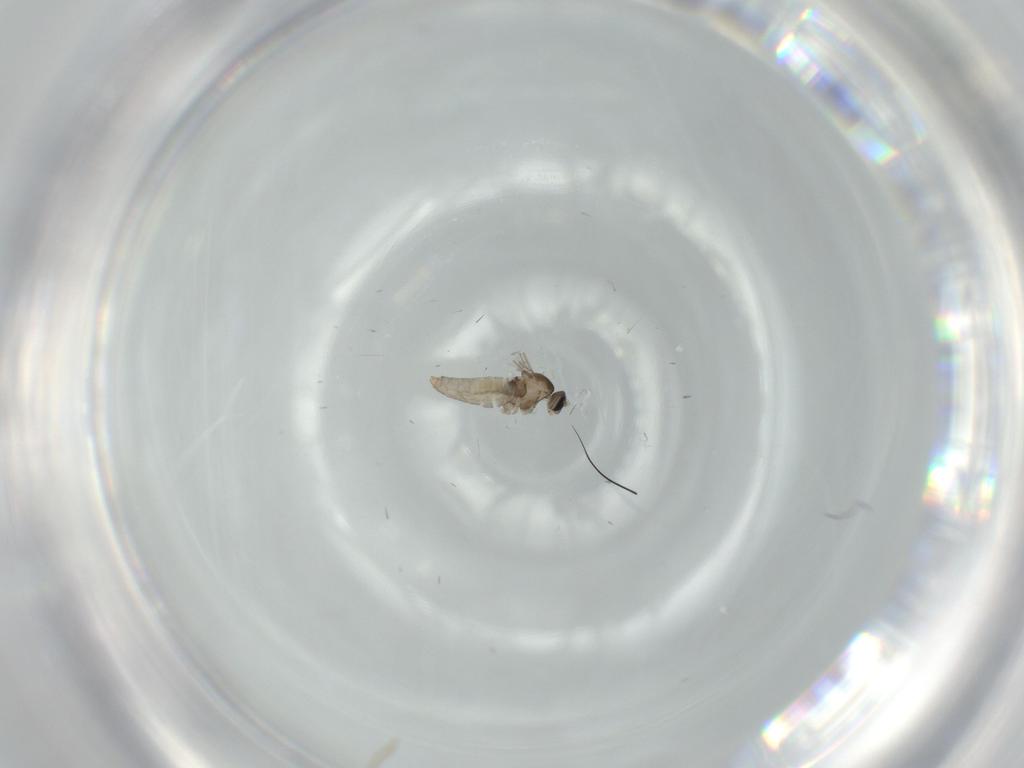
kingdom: Animalia
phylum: Arthropoda
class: Insecta
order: Diptera
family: Cecidomyiidae
